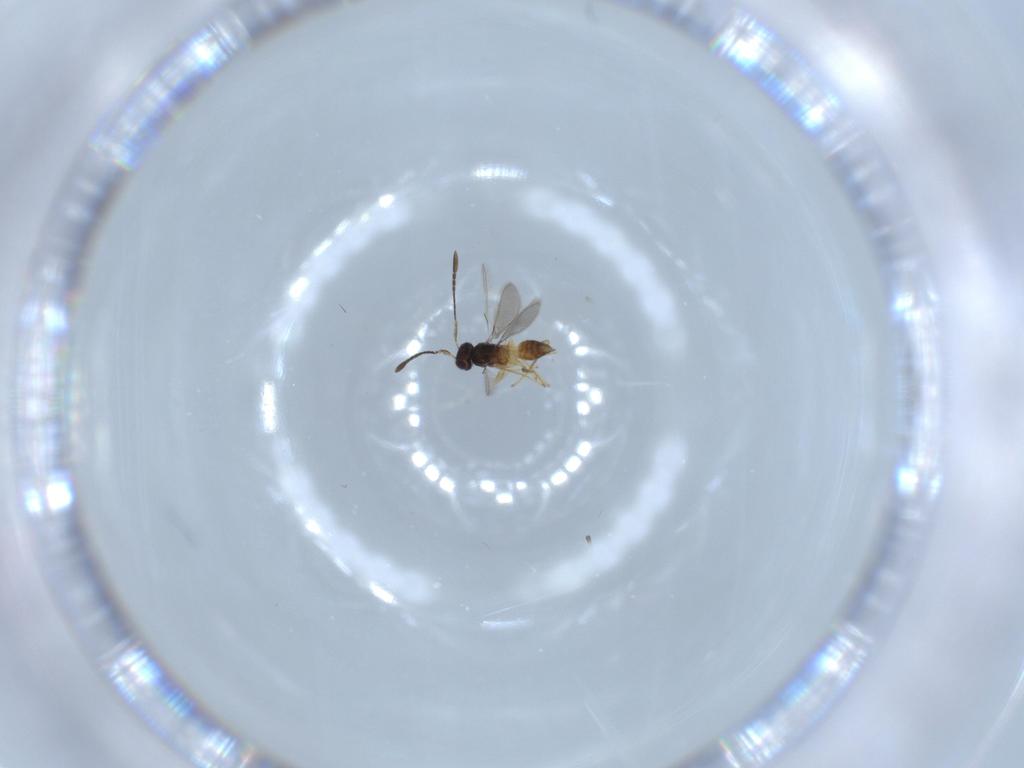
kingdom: Animalia
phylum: Arthropoda
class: Insecta
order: Hymenoptera
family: Mymaridae
